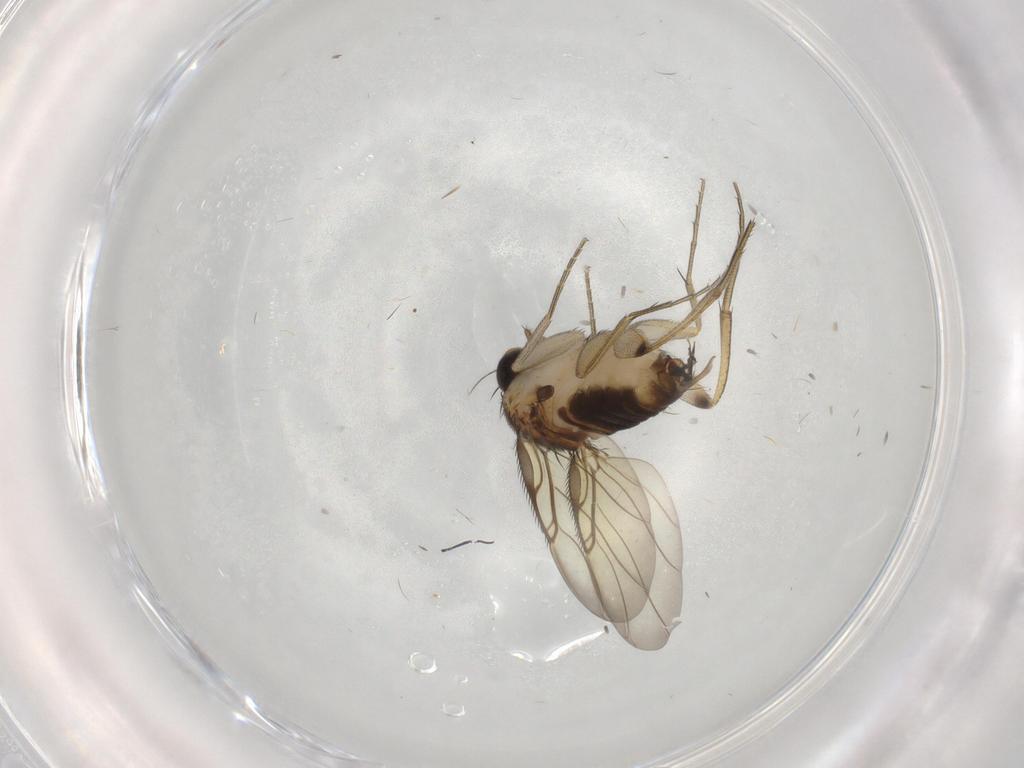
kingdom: Animalia
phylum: Arthropoda
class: Insecta
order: Diptera
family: Phoridae
